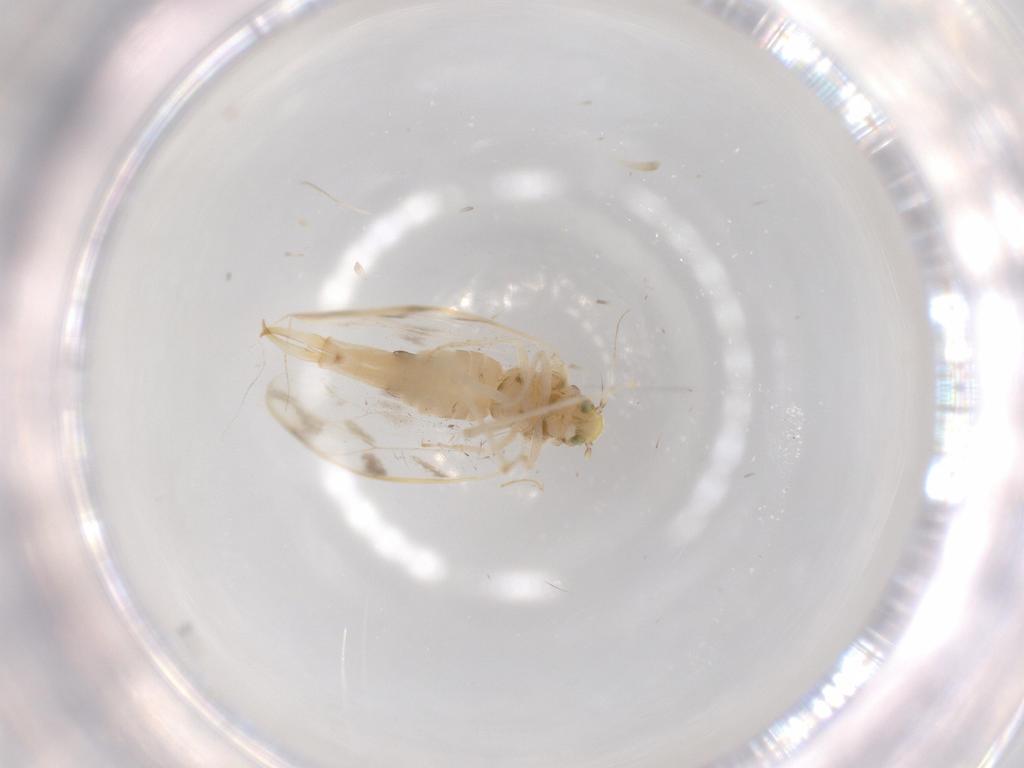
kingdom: Animalia
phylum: Arthropoda
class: Insecta
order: Hemiptera
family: Aleyrodidae
